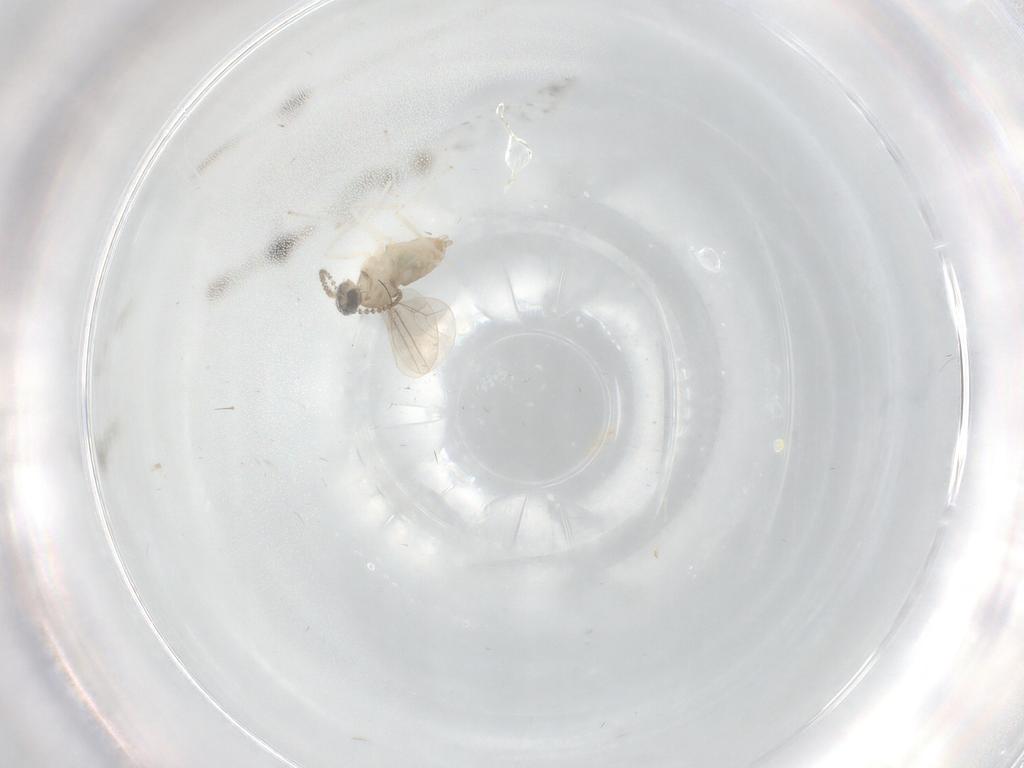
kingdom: Animalia
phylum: Arthropoda
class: Insecta
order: Diptera
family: Cecidomyiidae
